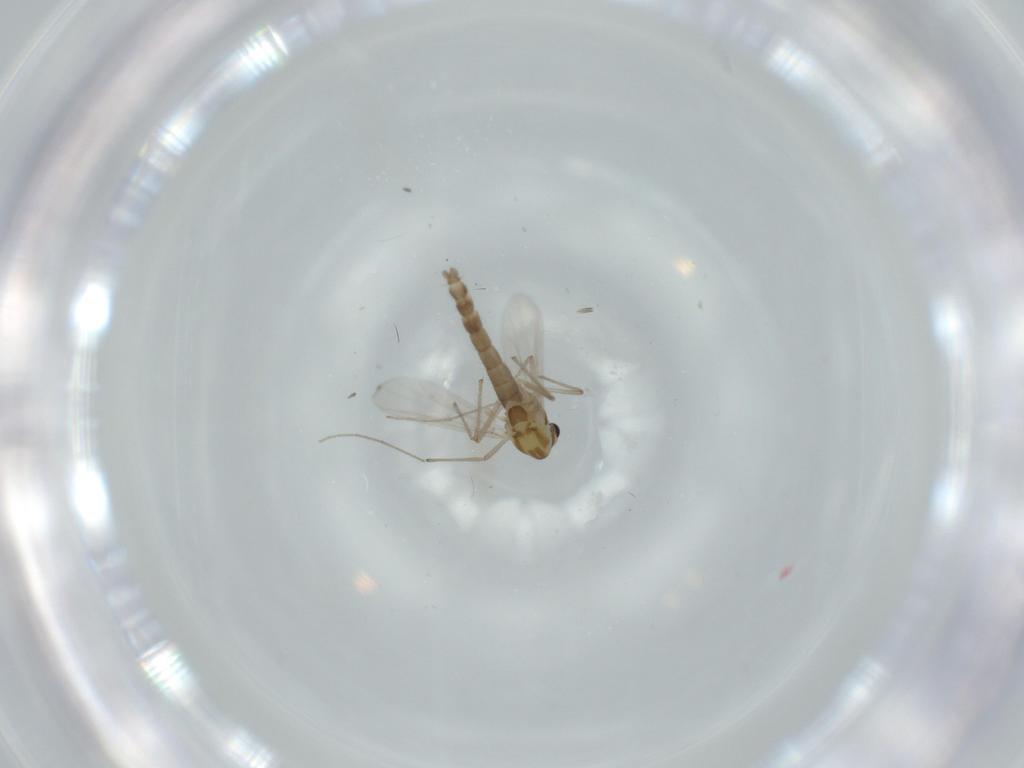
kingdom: Animalia
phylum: Arthropoda
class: Insecta
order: Diptera
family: Chironomidae
